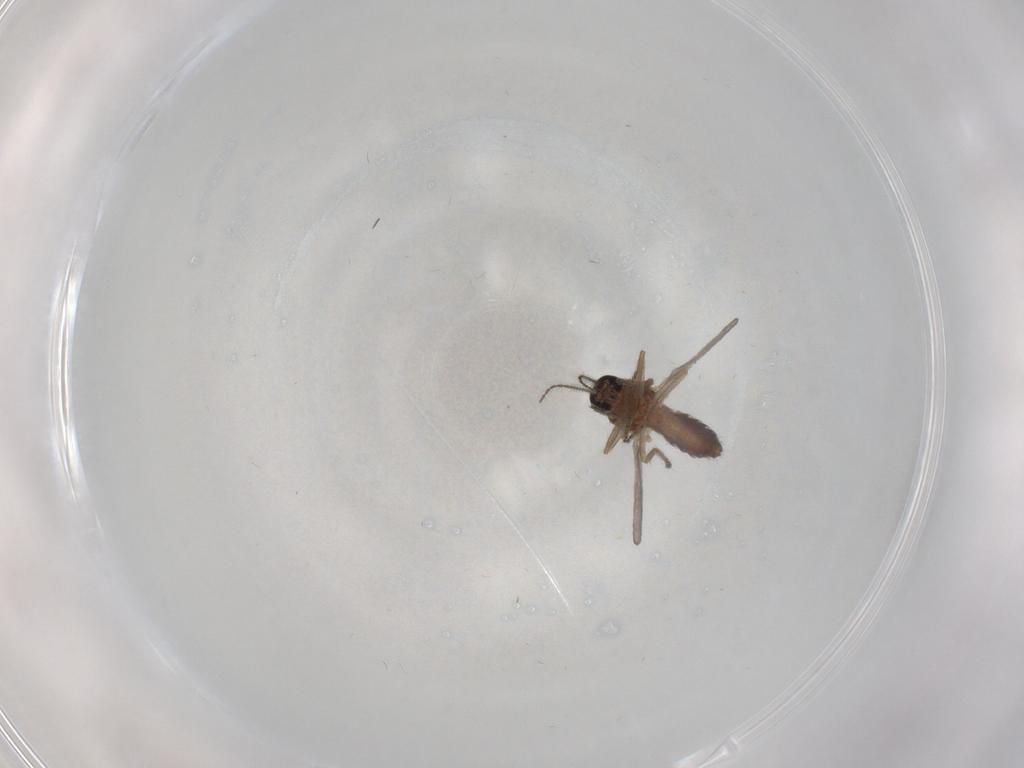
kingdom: Animalia
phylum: Arthropoda
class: Insecta
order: Diptera
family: Ceratopogonidae
